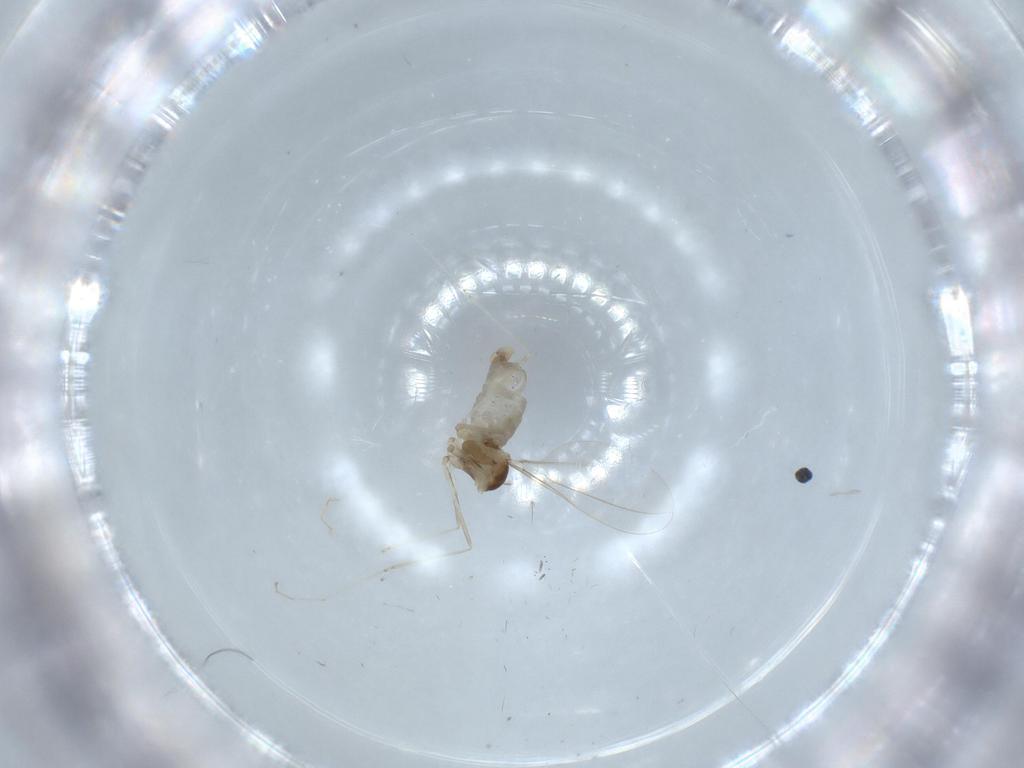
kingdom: Animalia
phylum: Arthropoda
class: Insecta
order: Diptera
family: Cecidomyiidae
